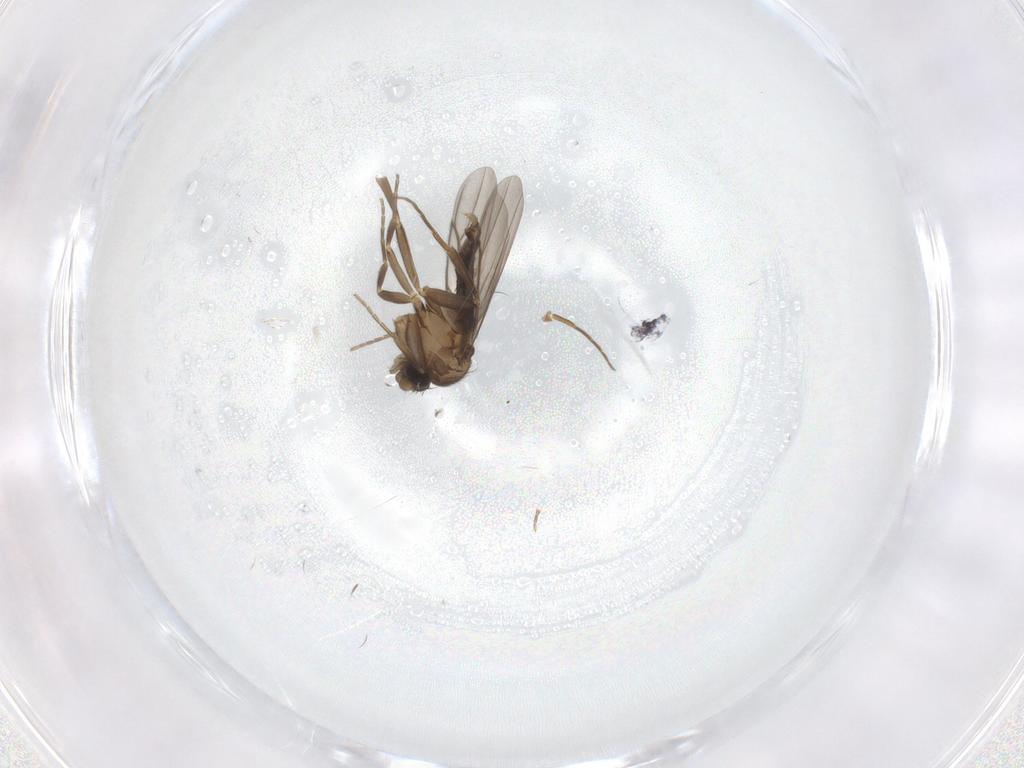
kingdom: Animalia
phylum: Arthropoda
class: Insecta
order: Diptera
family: Phoridae
